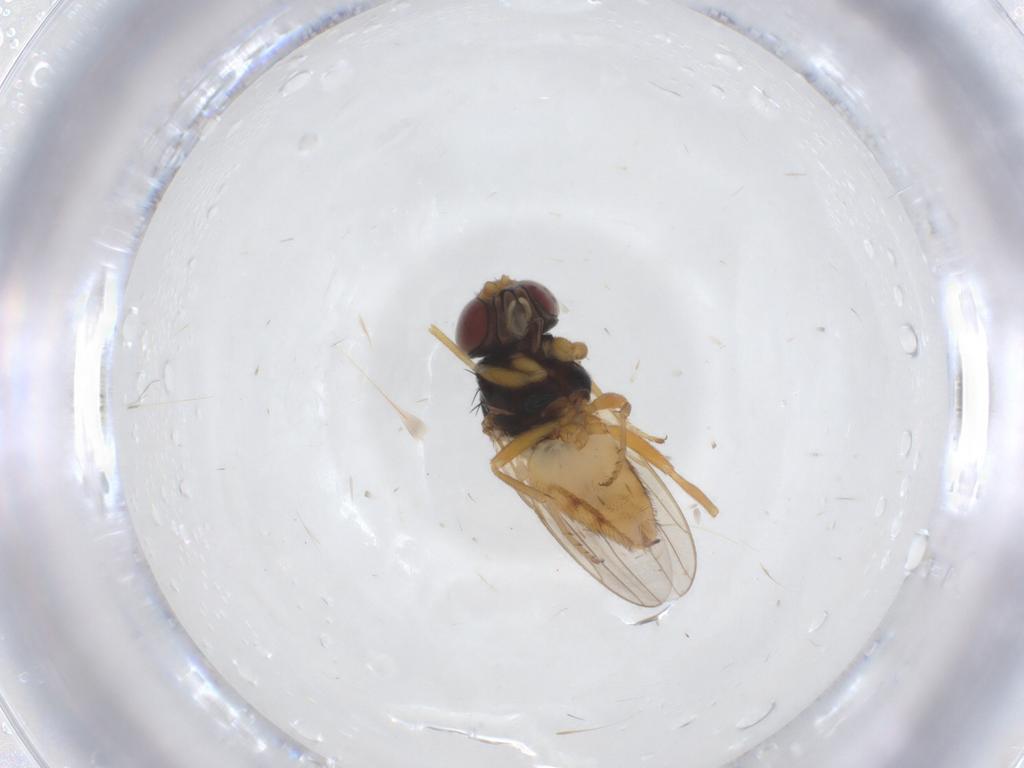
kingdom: Animalia
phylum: Arthropoda
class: Insecta
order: Diptera
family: Chloropidae
